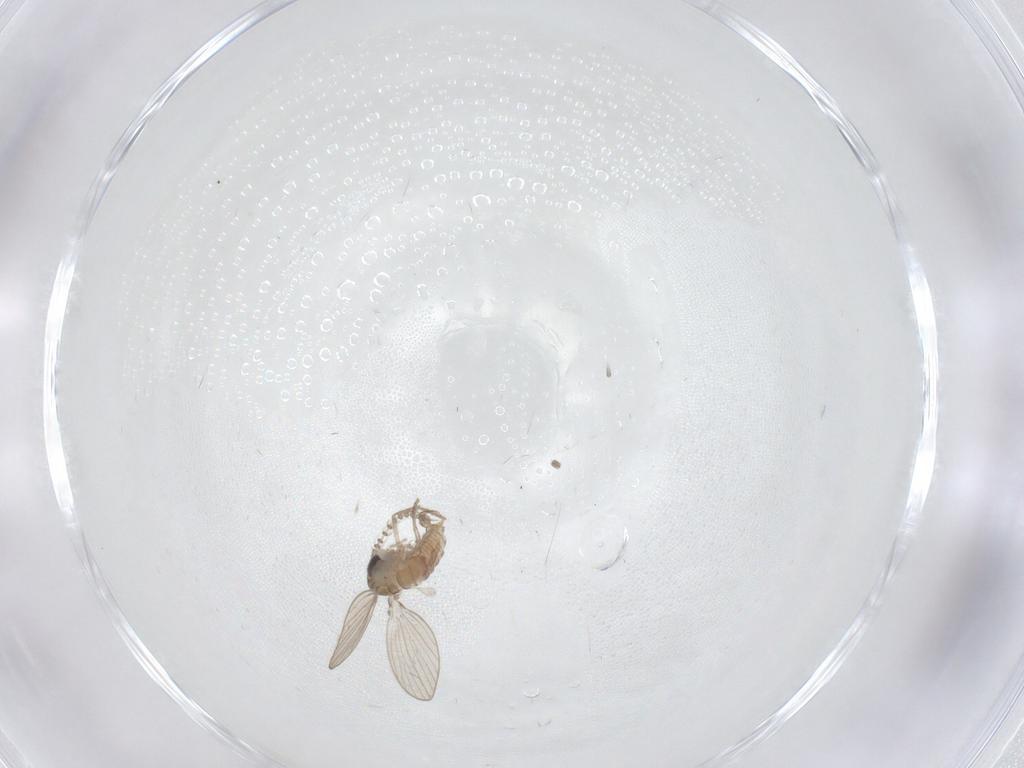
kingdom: Animalia
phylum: Arthropoda
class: Insecta
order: Diptera
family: Psychodidae
